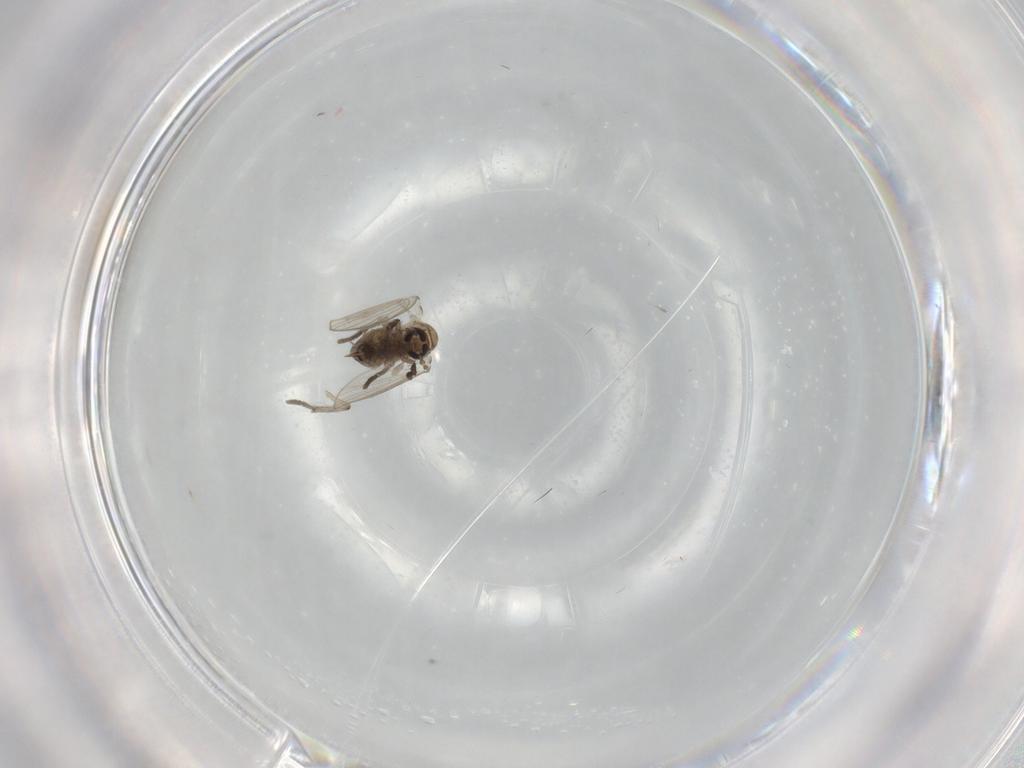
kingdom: Animalia
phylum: Arthropoda
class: Insecta
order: Diptera
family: Psychodidae
